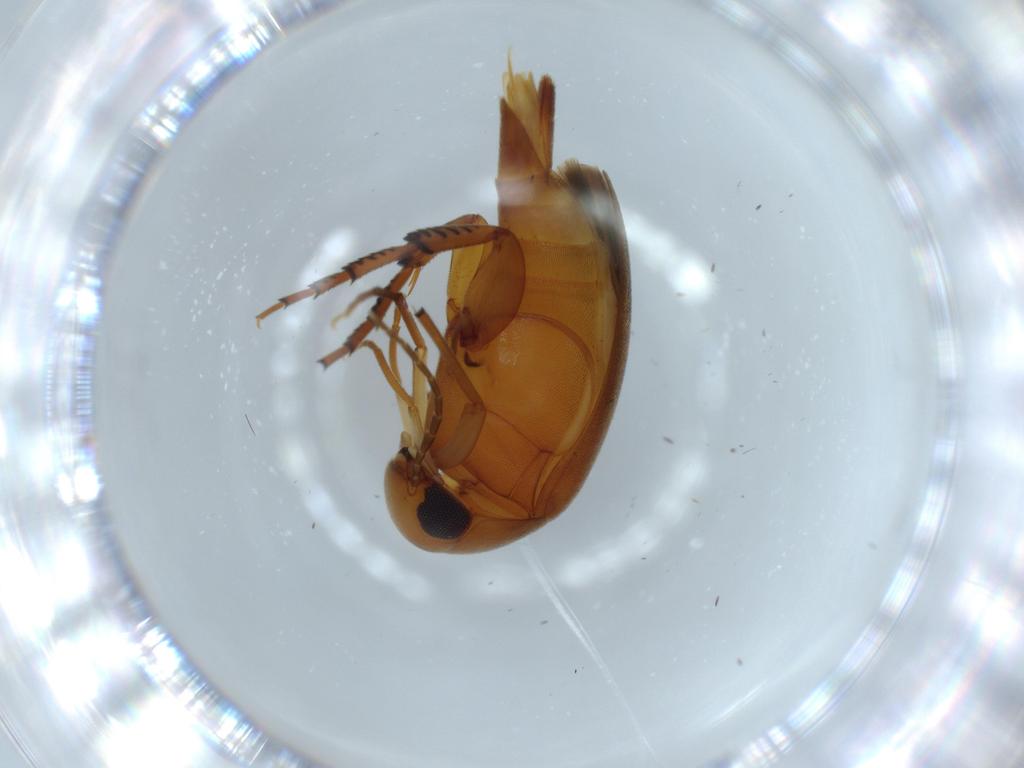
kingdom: Animalia
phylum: Arthropoda
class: Insecta
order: Coleoptera
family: Mordellidae
